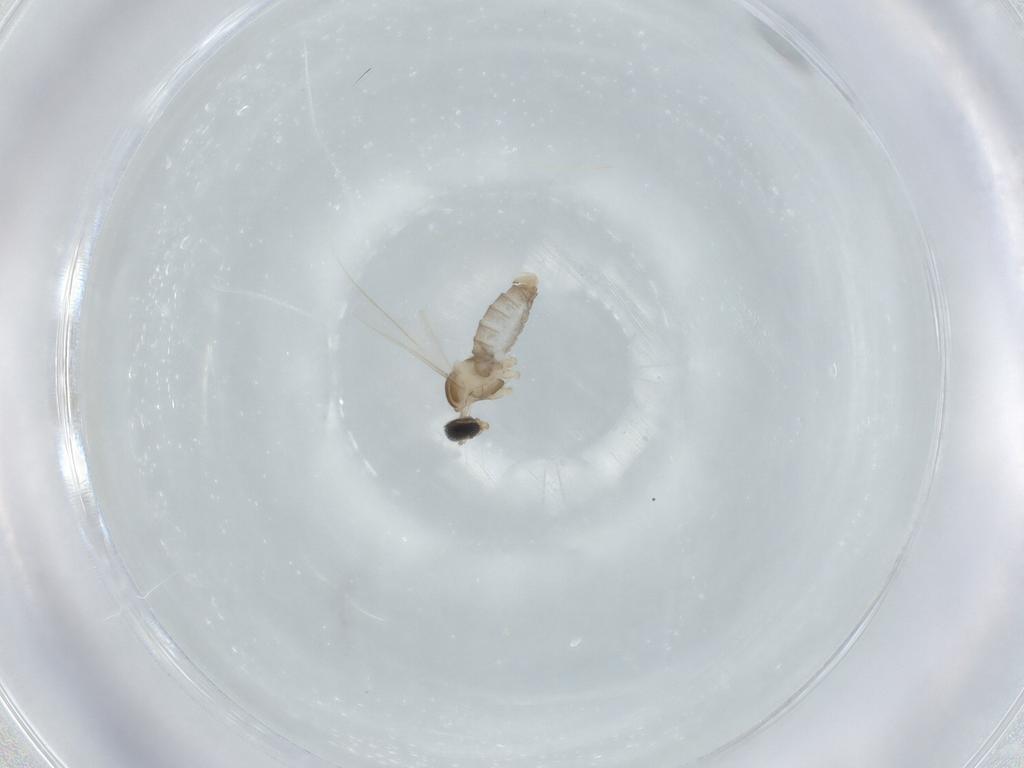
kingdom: Animalia
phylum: Arthropoda
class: Insecta
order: Diptera
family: Cecidomyiidae
